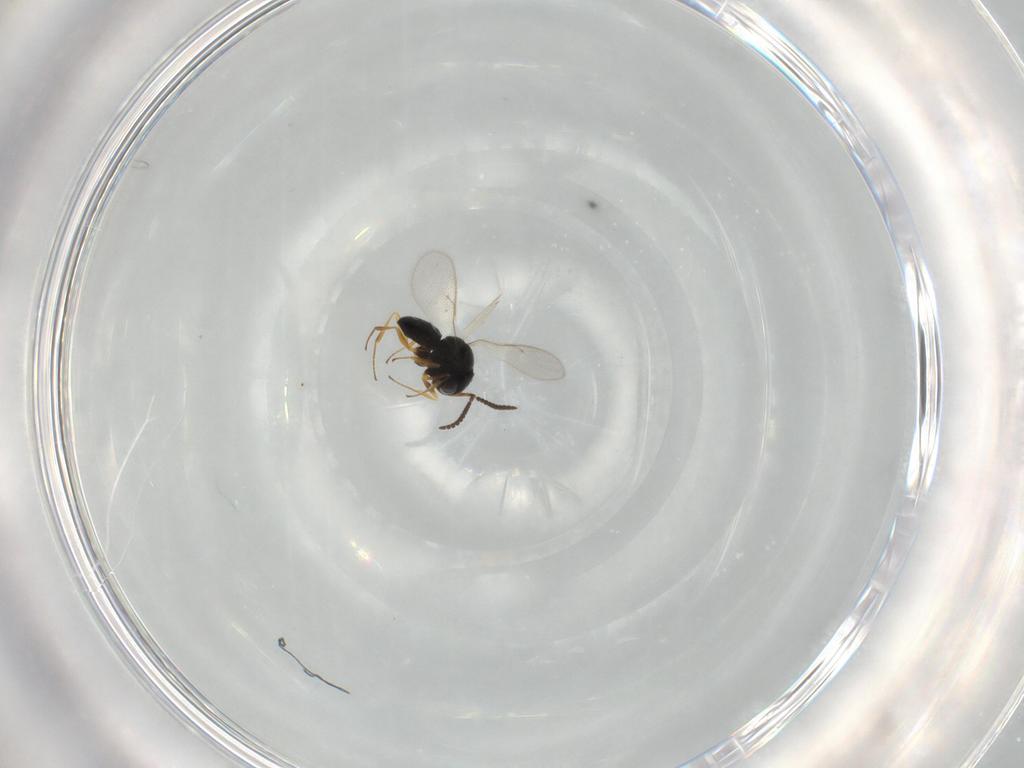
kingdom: Animalia
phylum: Arthropoda
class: Insecta
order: Hymenoptera
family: Scelionidae
